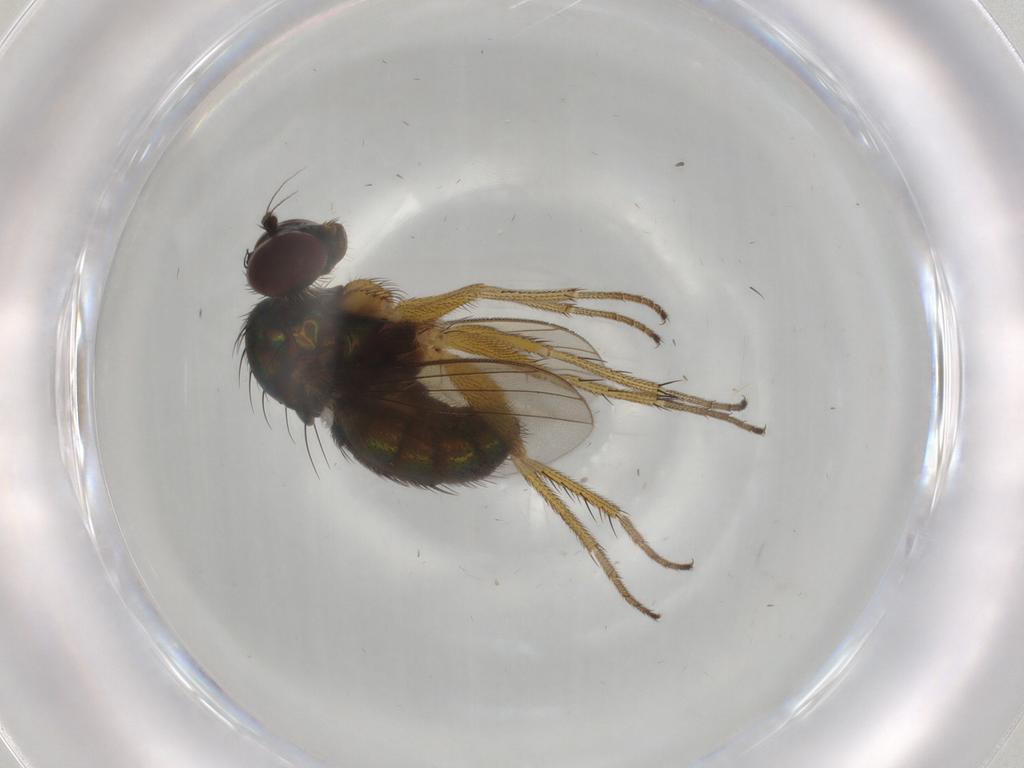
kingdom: Animalia
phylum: Arthropoda
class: Insecta
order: Diptera
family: Dolichopodidae
